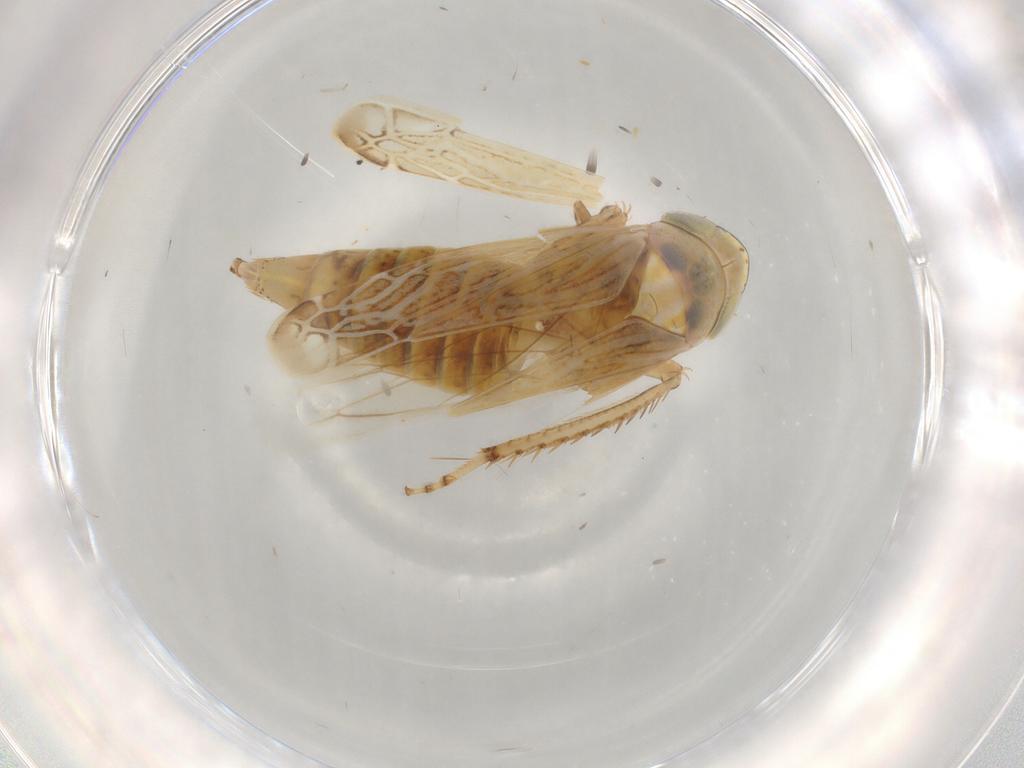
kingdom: Animalia
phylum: Arthropoda
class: Insecta
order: Hemiptera
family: Cicadellidae
